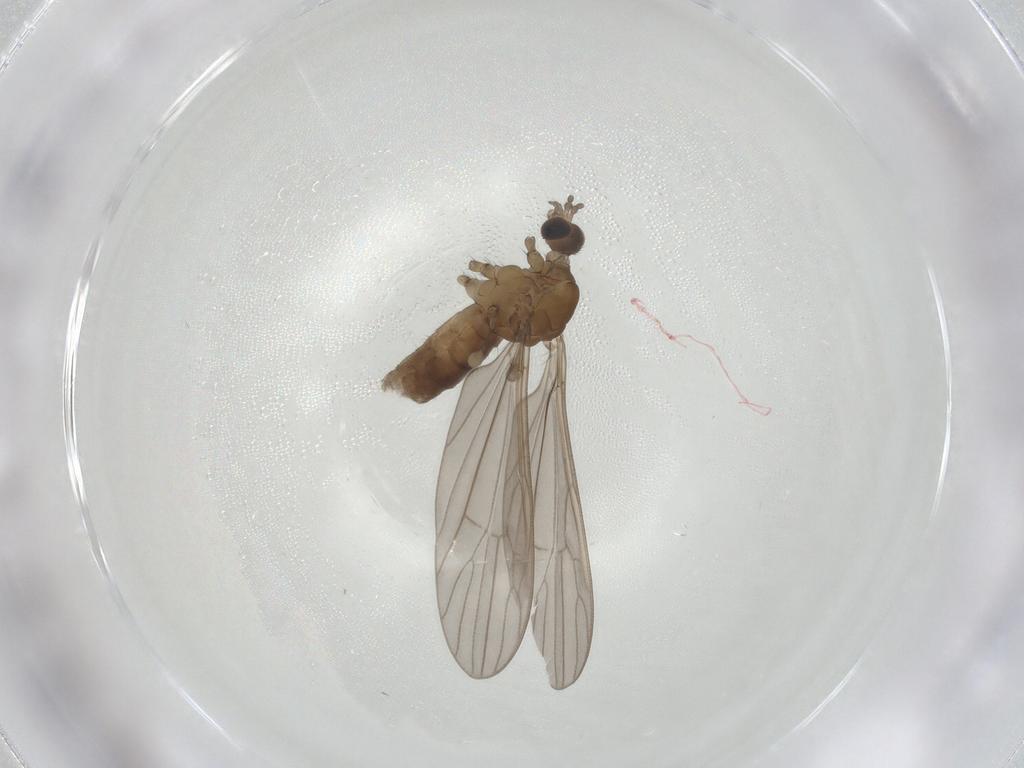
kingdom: Animalia
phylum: Arthropoda
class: Insecta
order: Diptera
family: Limoniidae
